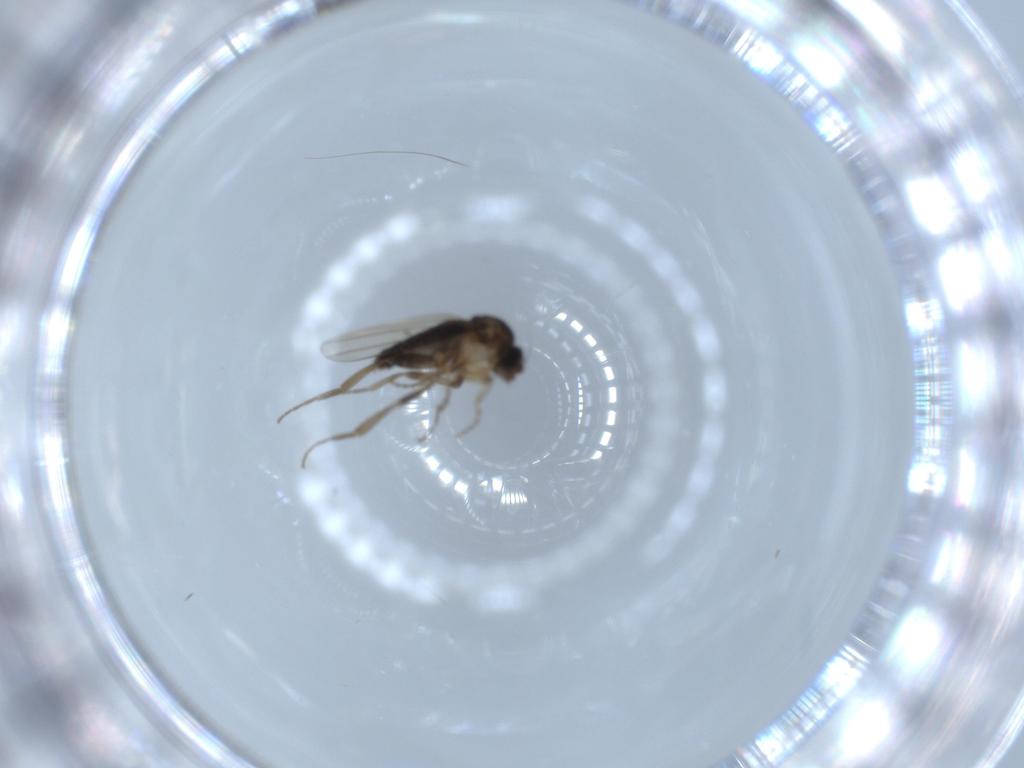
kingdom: Animalia
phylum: Arthropoda
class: Insecta
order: Diptera
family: Phoridae
